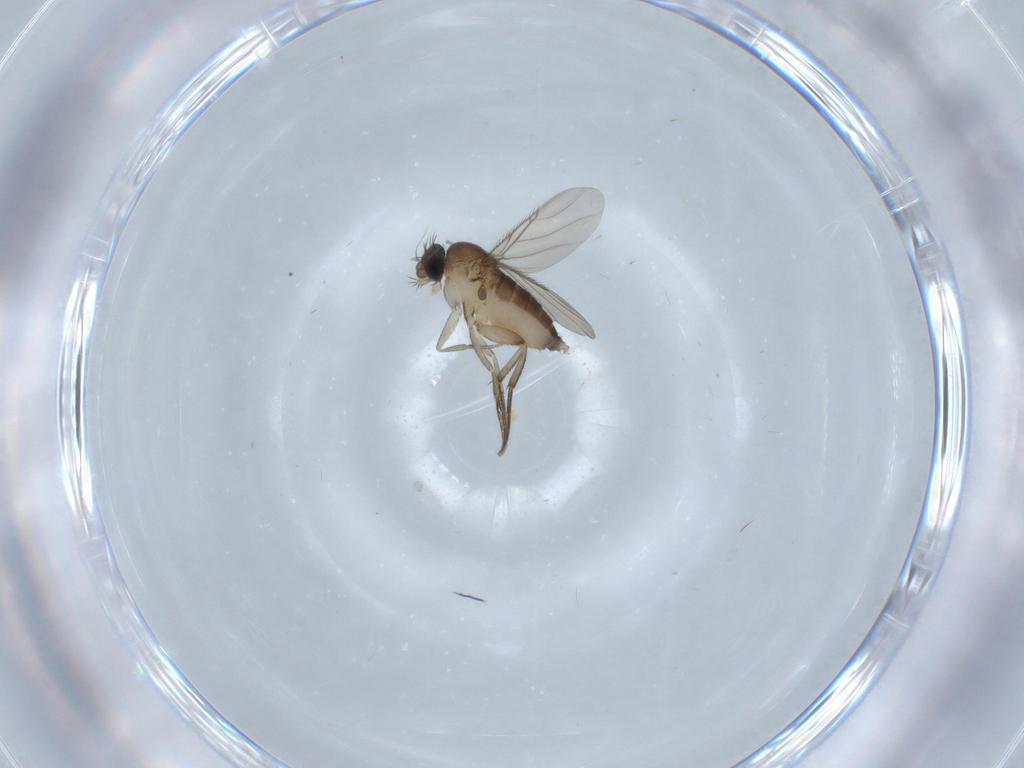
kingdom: Animalia
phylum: Arthropoda
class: Insecta
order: Diptera
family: Phoridae
